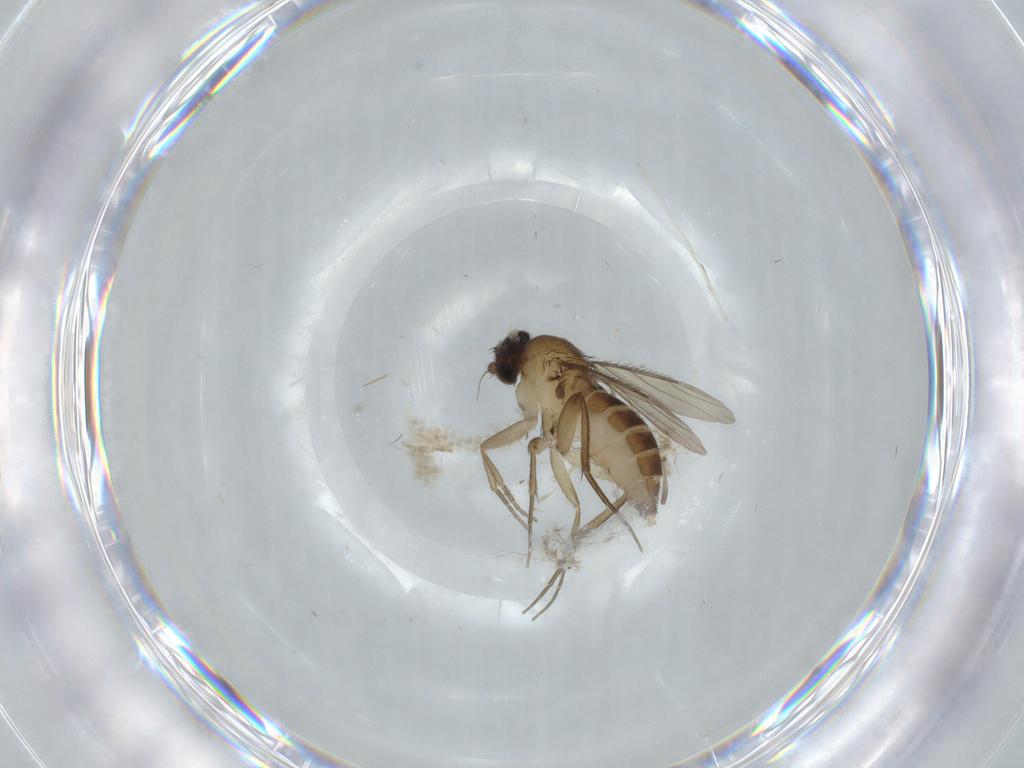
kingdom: Animalia
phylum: Arthropoda
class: Insecta
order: Diptera
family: Phoridae
